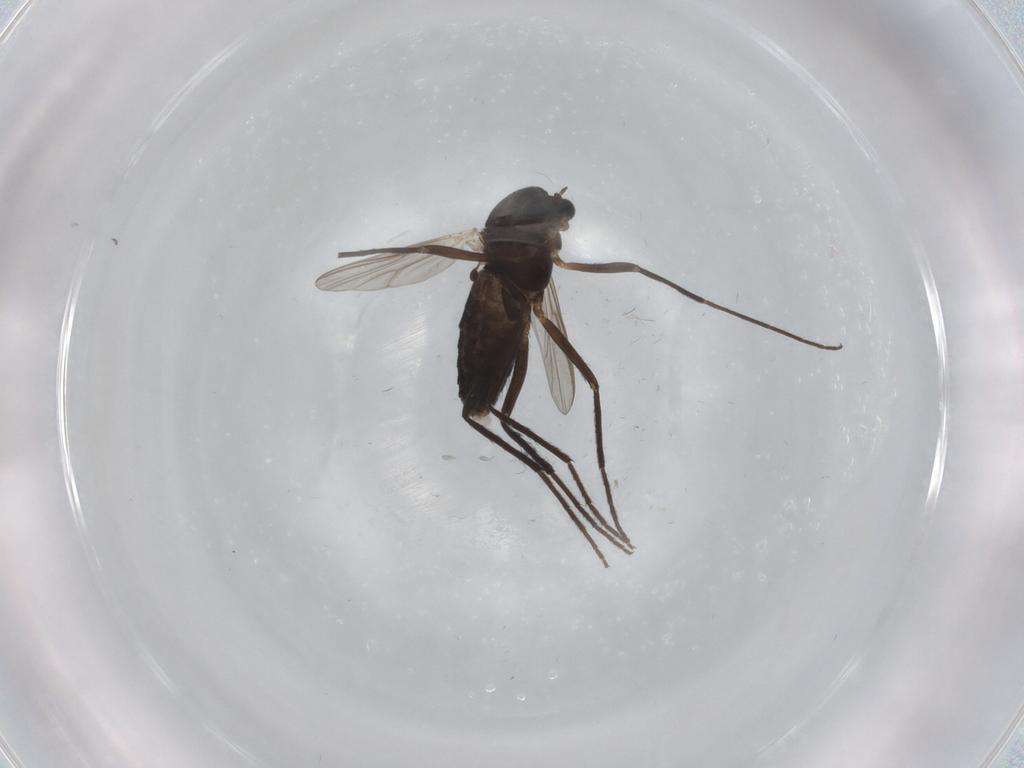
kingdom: Animalia
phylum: Arthropoda
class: Insecta
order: Diptera
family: Chironomidae
